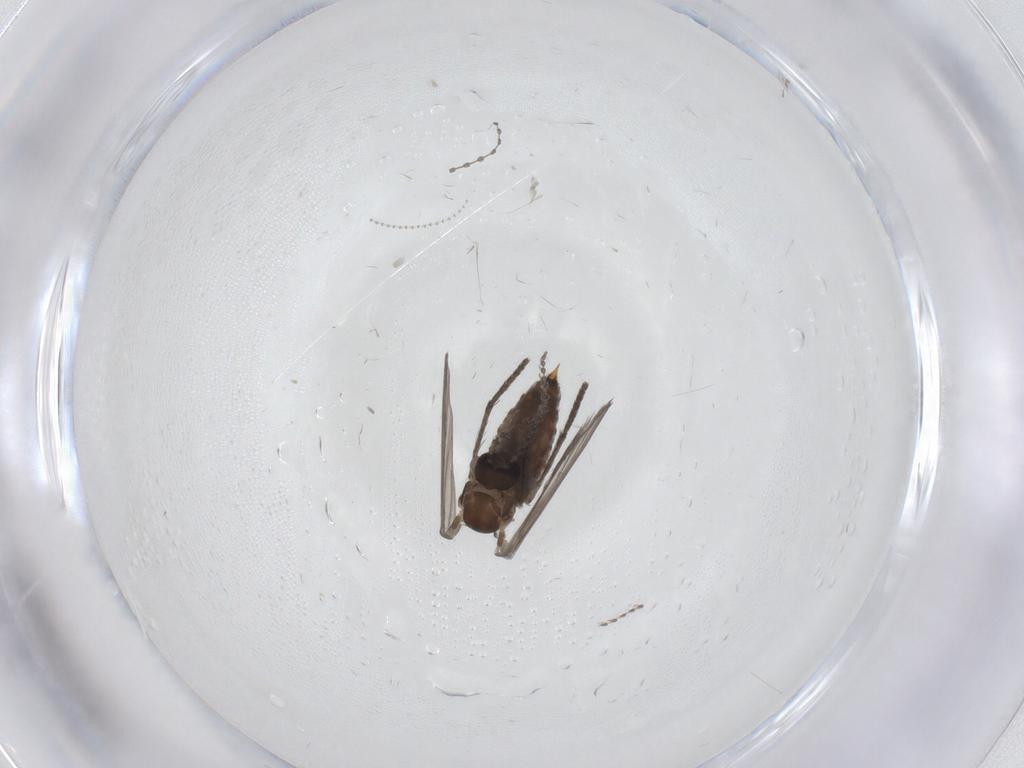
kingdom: Animalia
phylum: Arthropoda
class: Insecta
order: Diptera
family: Psychodidae
